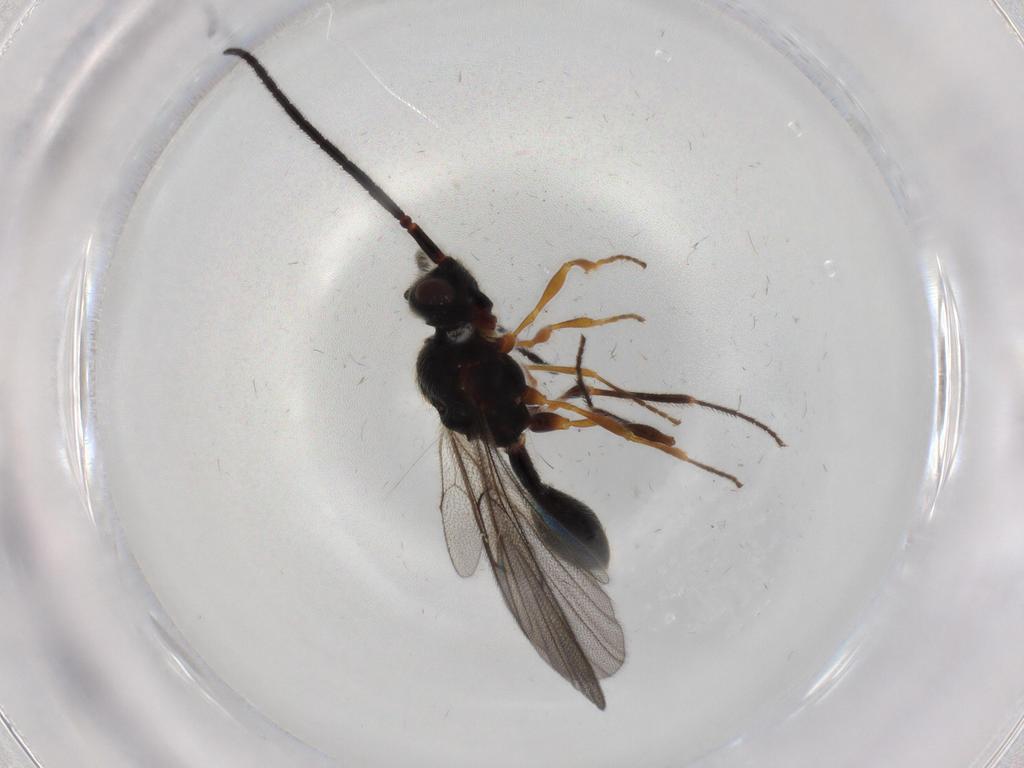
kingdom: Animalia
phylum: Arthropoda
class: Insecta
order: Hymenoptera
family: Diapriidae
